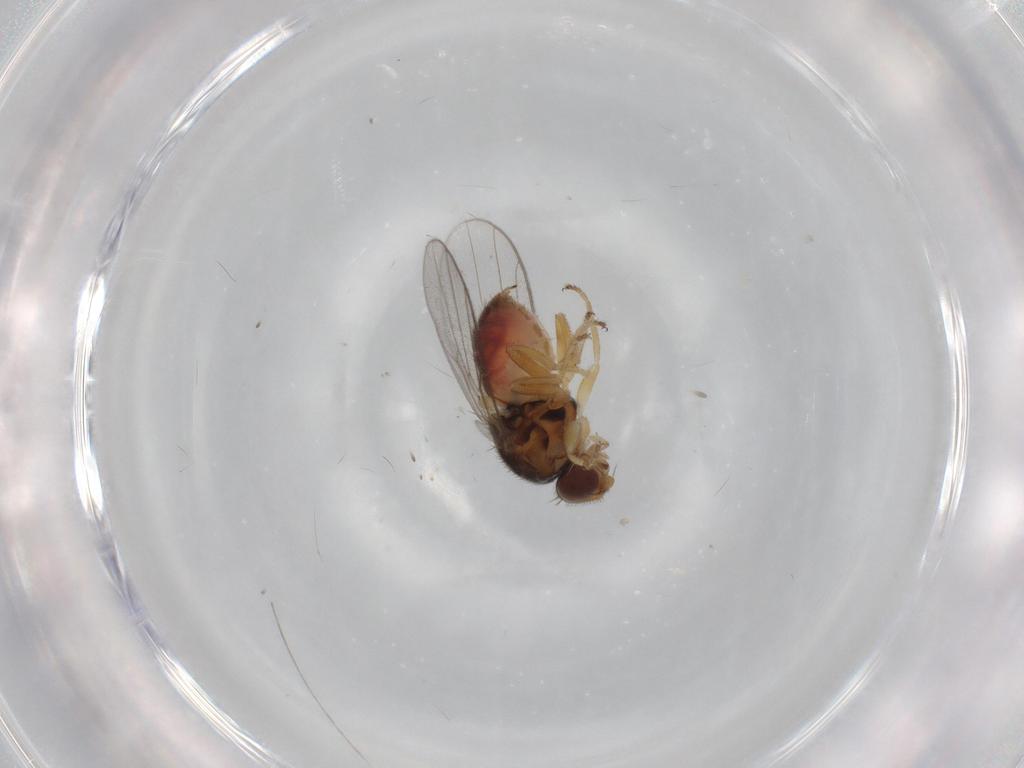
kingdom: Animalia
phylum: Arthropoda
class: Insecta
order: Diptera
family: Chloropidae
